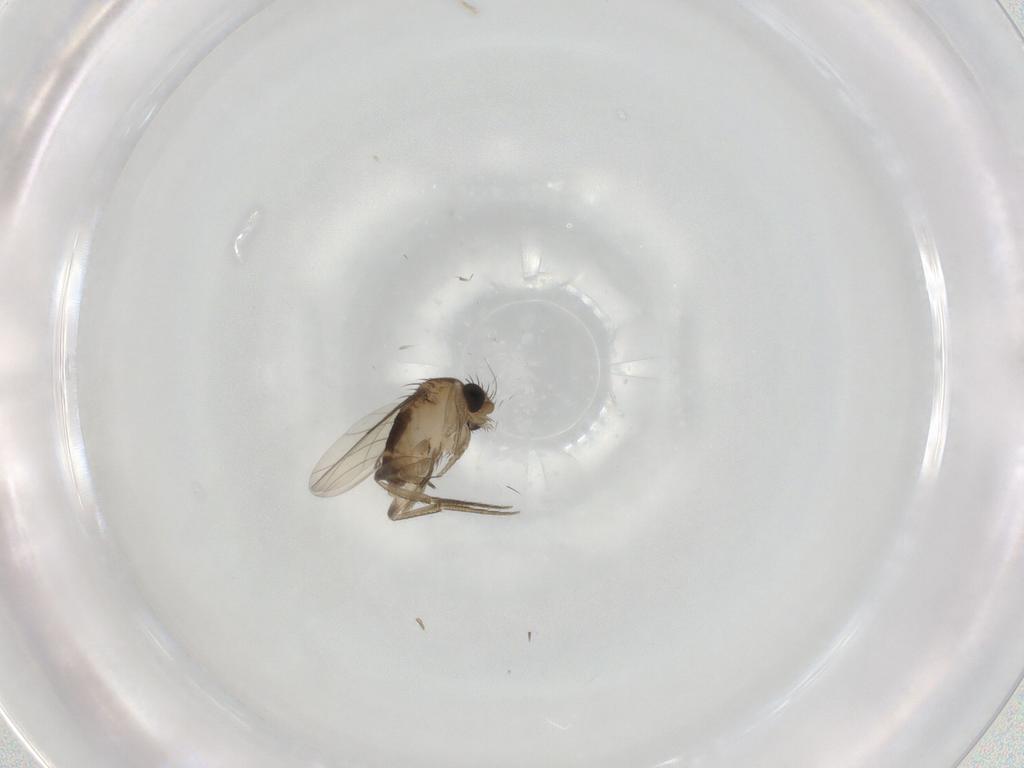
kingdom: Animalia
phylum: Arthropoda
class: Insecta
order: Diptera
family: Phoridae
